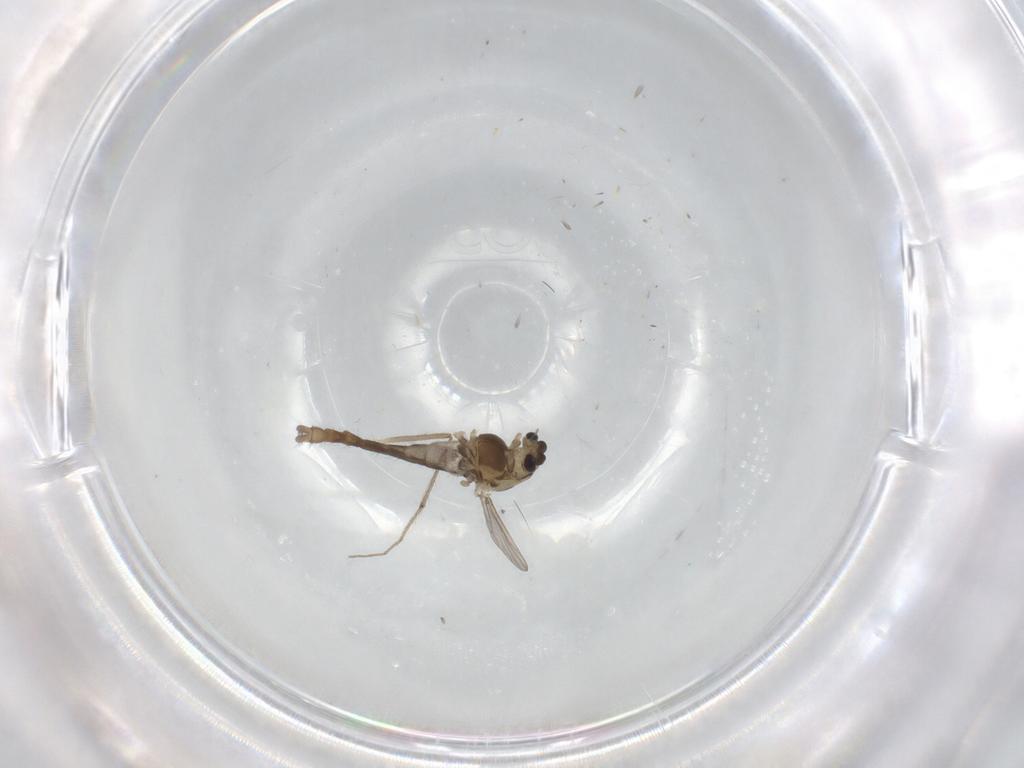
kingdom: Animalia
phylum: Arthropoda
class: Insecta
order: Diptera
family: Chironomidae
